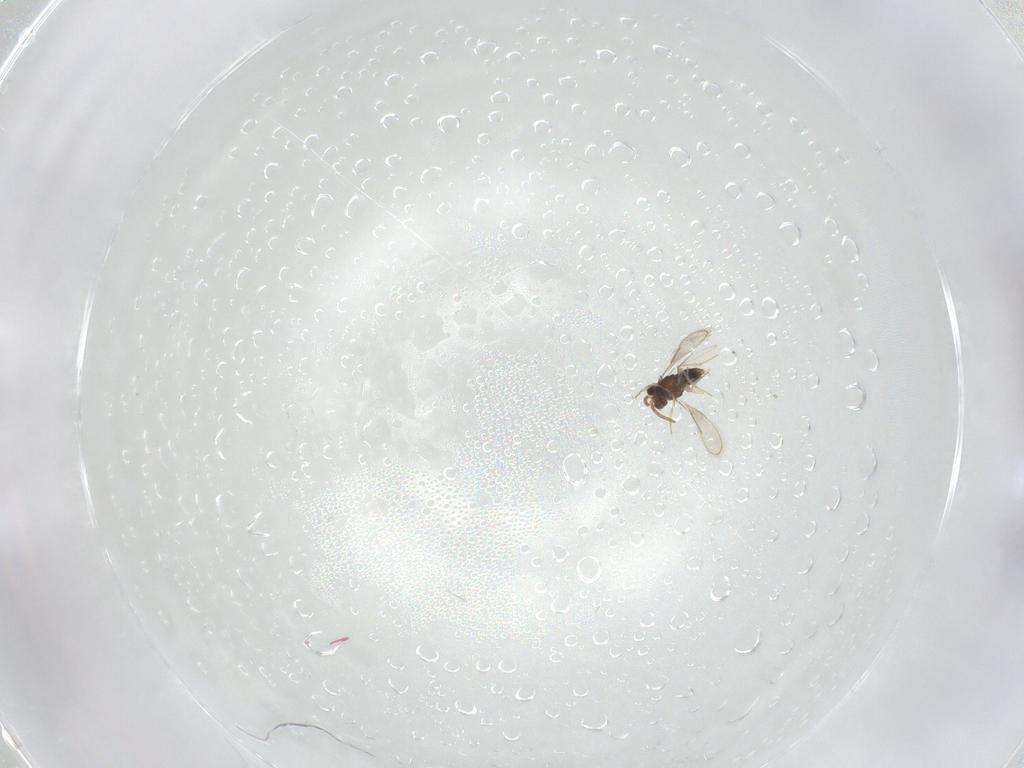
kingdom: Animalia
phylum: Arthropoda
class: Insecta
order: Hymenoptera
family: Aphelinidae
